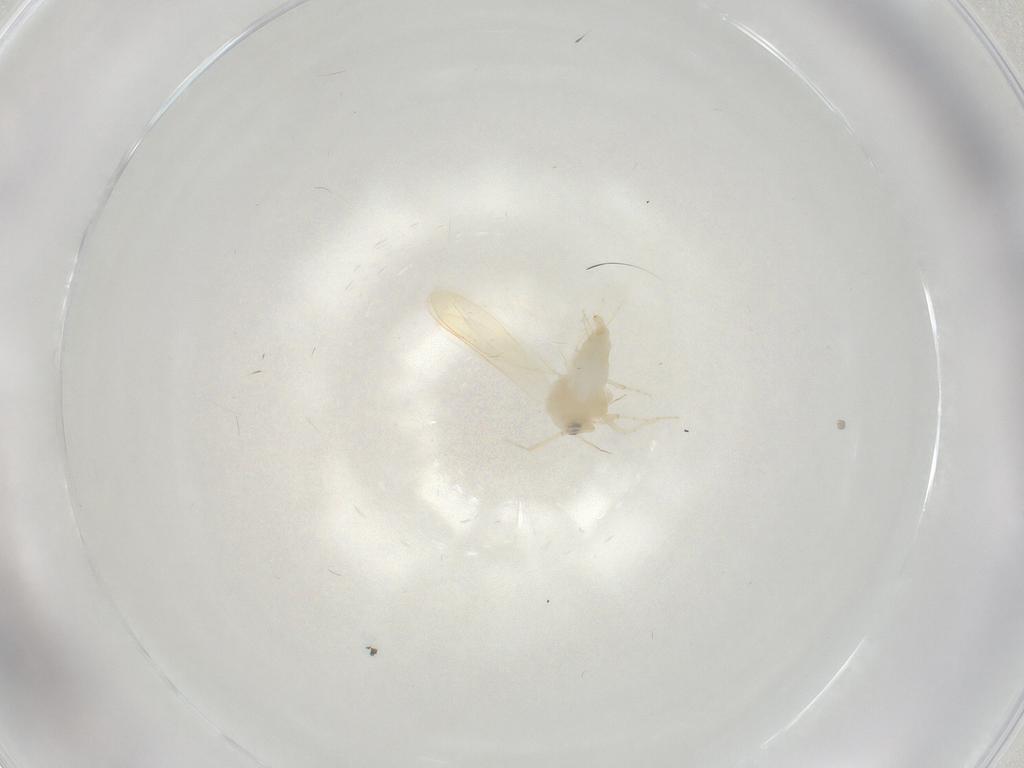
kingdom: Animalia
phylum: Arthropoda
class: Insecta
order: Hemiptera
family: Aleyrodidae
